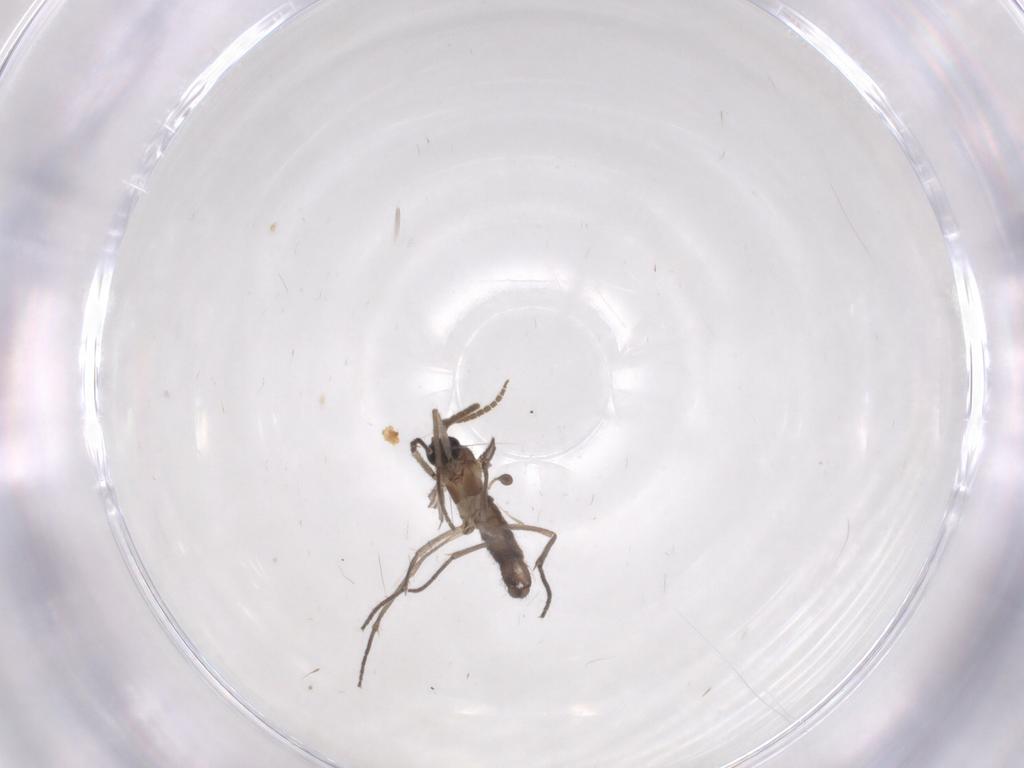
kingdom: Animalia
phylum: Arthropoda
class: Insecta
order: Diptera
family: Cecidomyiidae
